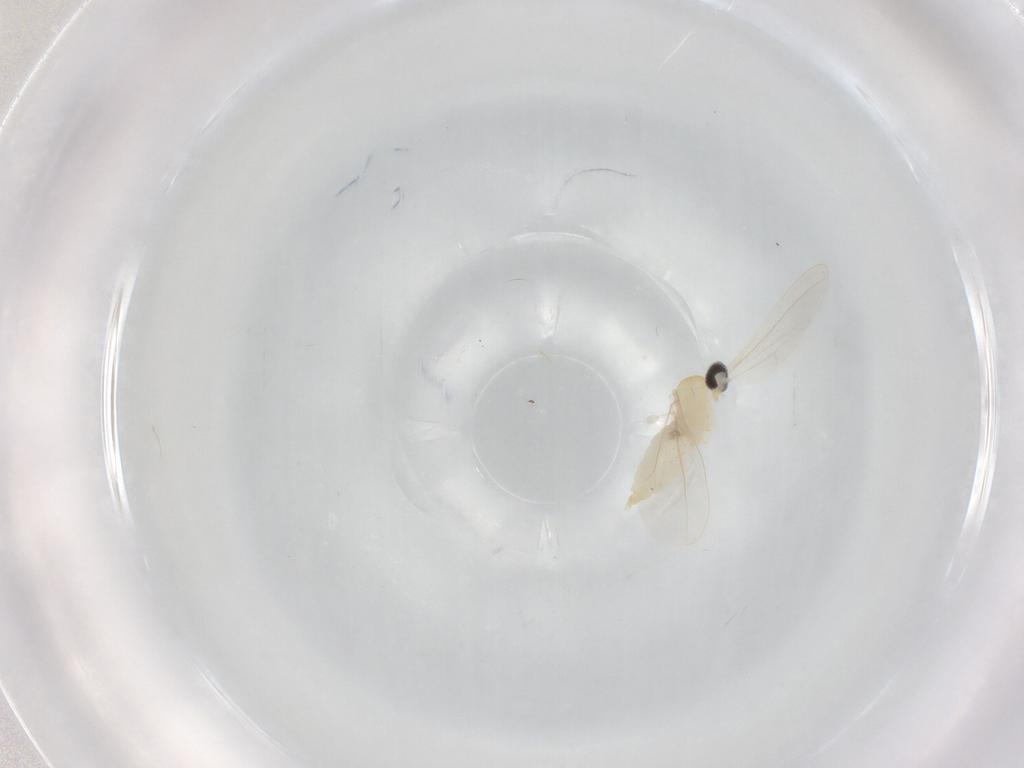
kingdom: Animalia
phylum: Arthropoda
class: Insecta
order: Diptera
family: Cecidomyiidae
